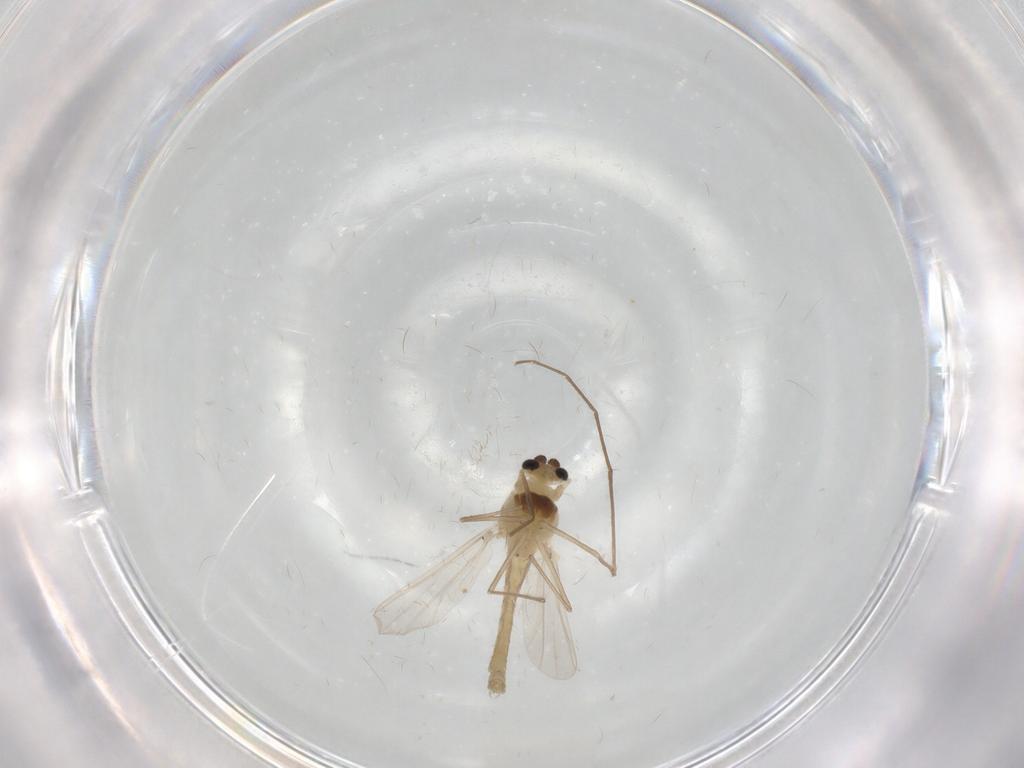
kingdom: Animalia
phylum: Arthropoda
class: Insecta
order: Diptera
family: Chironomidae
